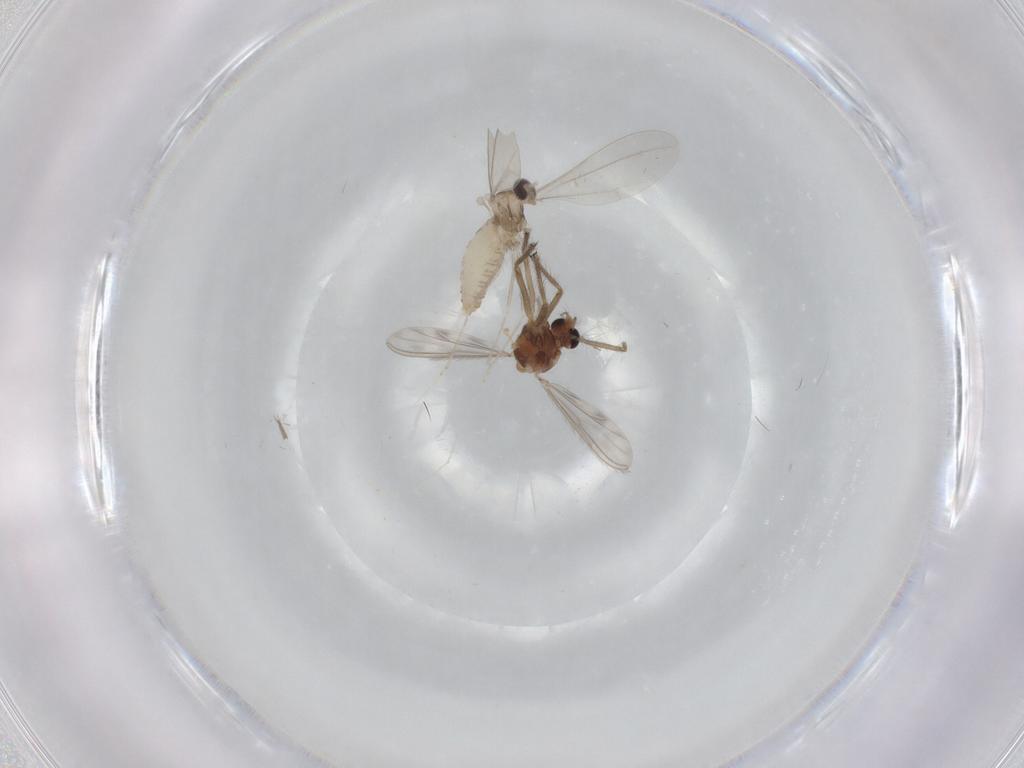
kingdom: Animalia
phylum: Arthropoda
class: Insecta
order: Diptera
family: Chironomidae
